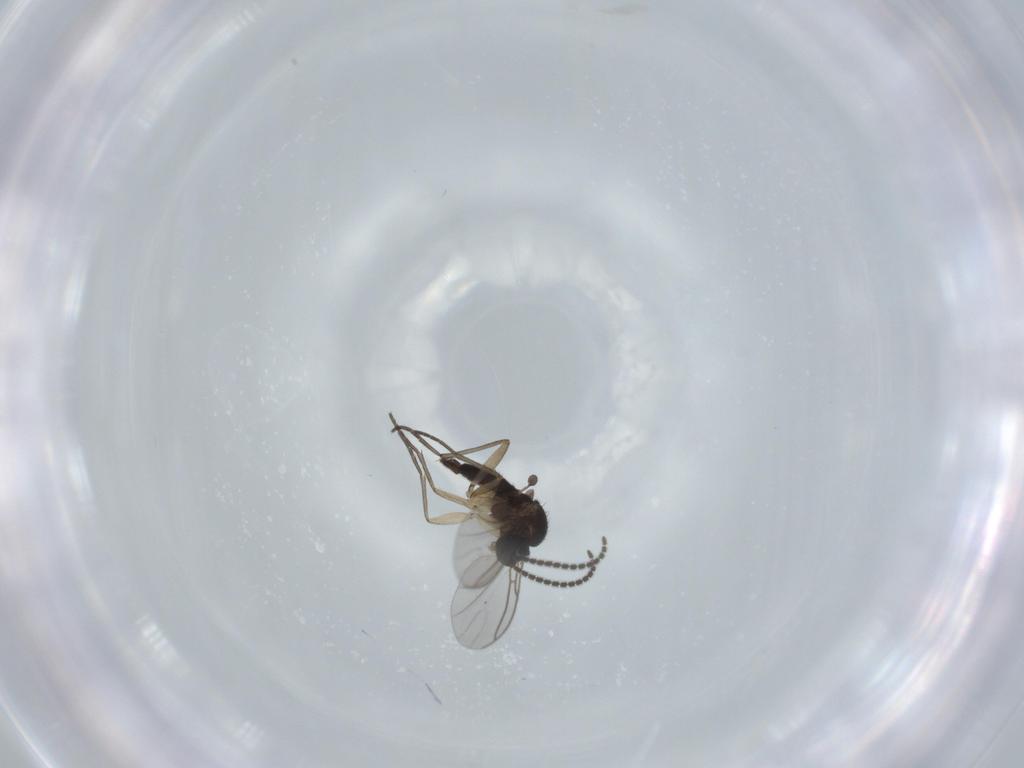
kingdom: Animalia
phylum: Arthropoda
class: Insecta
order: Diptera
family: Sciaridae
